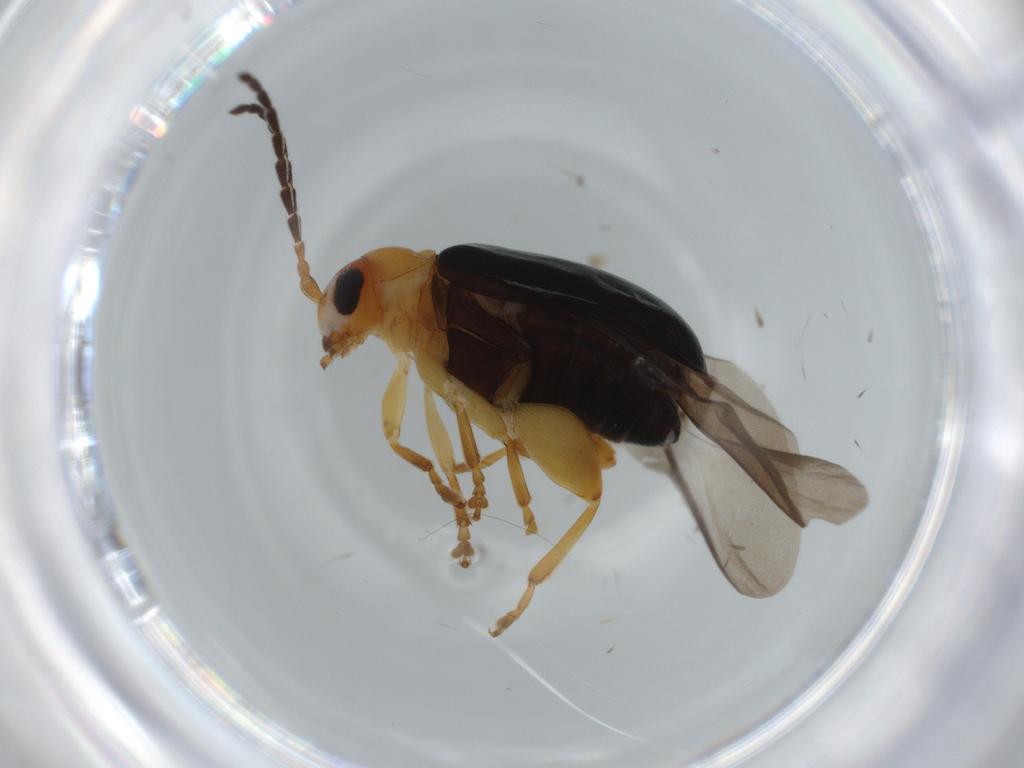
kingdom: Animalia
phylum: Arthropoda
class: Insecta
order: Coleoptera
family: Chrysomelidae
